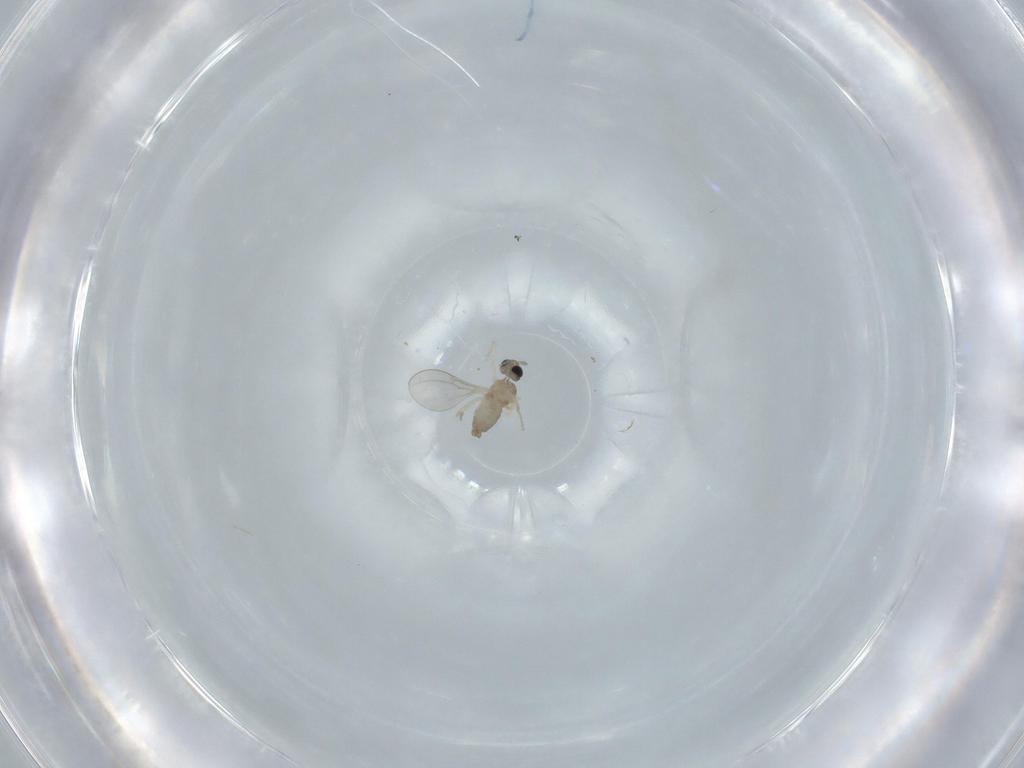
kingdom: Animalia
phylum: Arthropoda
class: Insecta
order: Diptera
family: Cecidomyiidae
